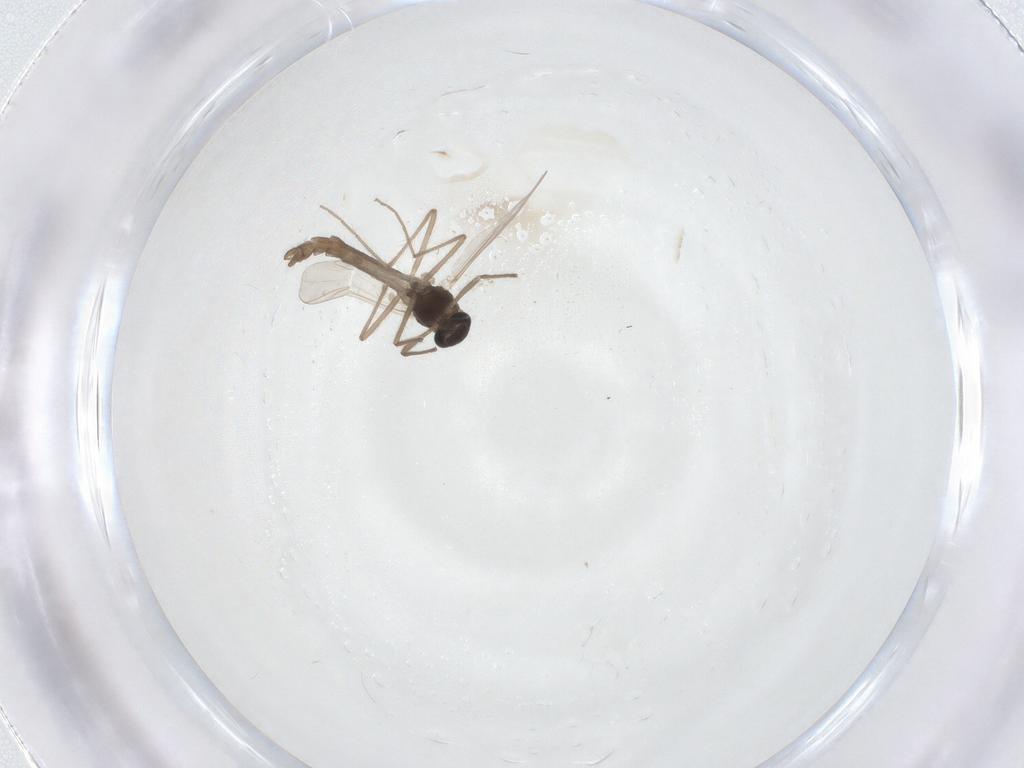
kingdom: Animalia
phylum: Arthropoda
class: Insecta
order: Diptera
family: Chironomidae
